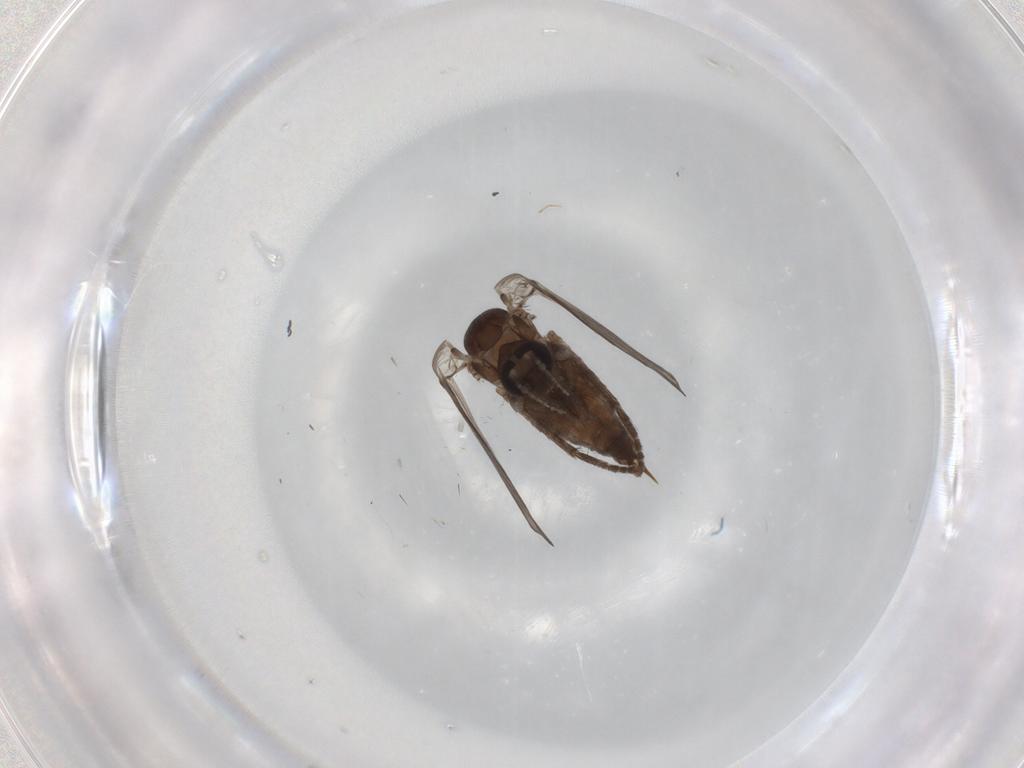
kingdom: Animalia
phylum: Arthropoda
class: Insecta
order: Diptera
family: Psychodidae
